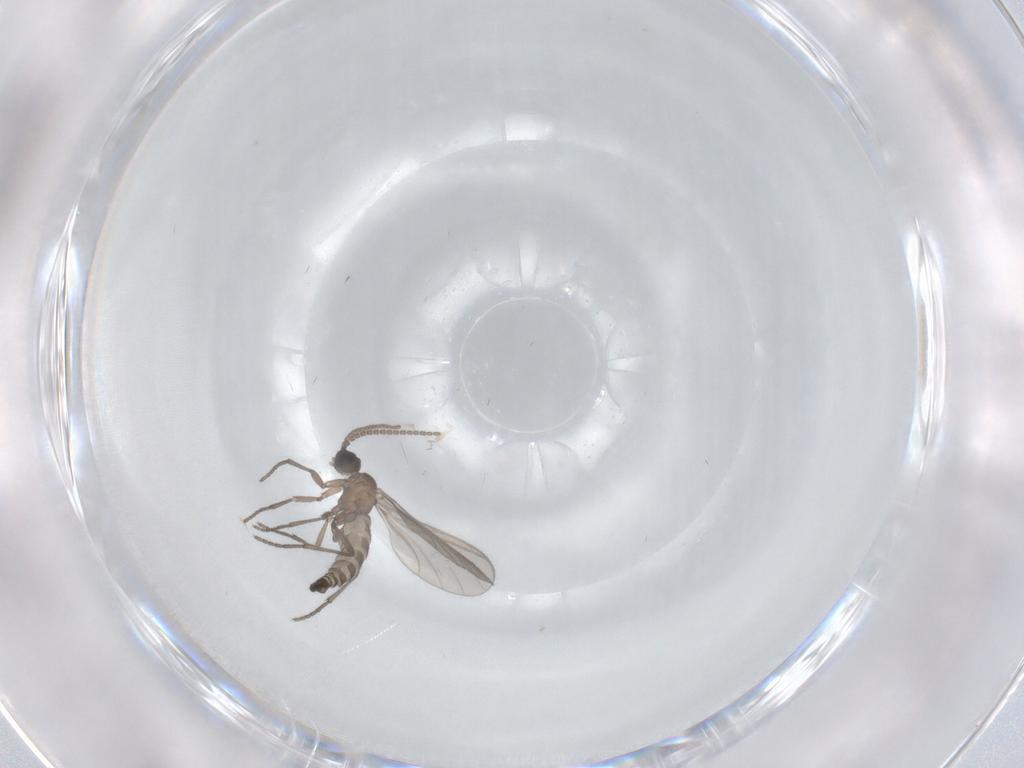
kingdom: Animalia
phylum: Arthropoda
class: Insecta
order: Diptera
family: Sciaridae
